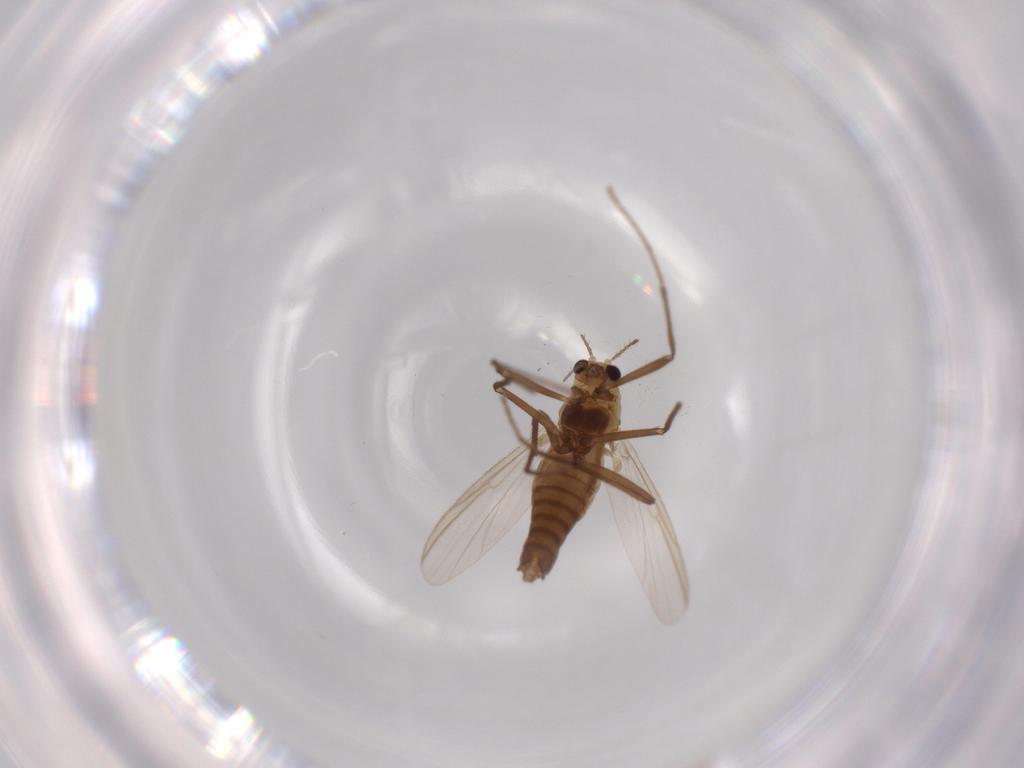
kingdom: Animalia
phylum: Arthropoda
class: Insecta
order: Diptera
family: Chironomidae
